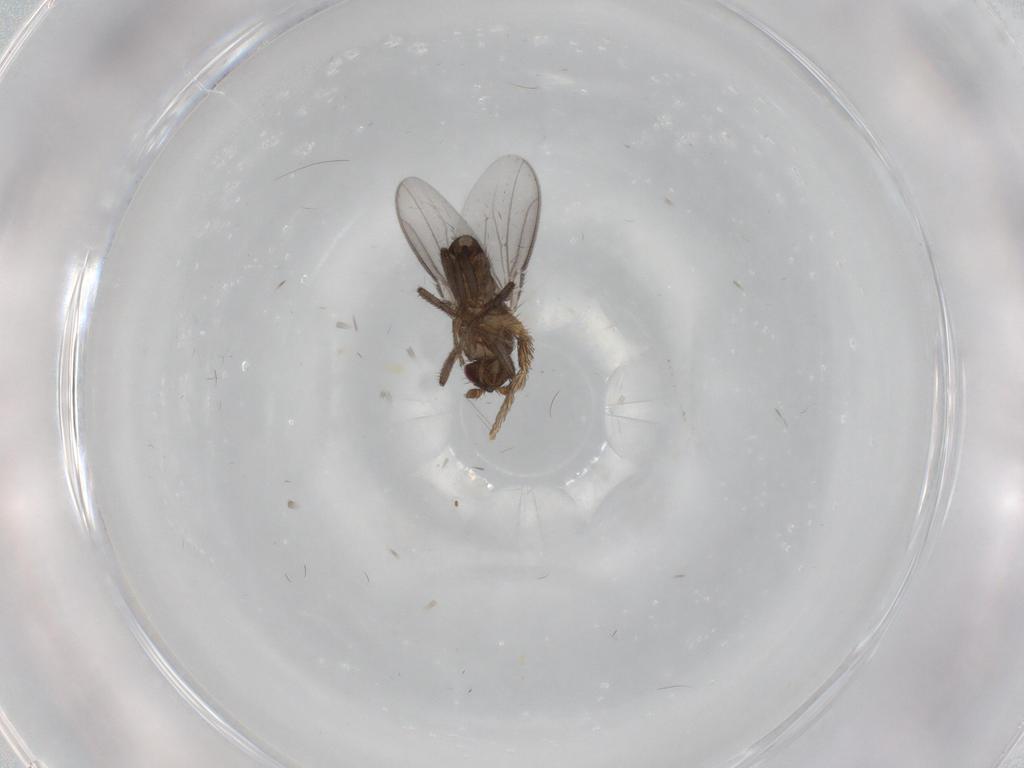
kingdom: Animalia
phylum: Arthropoda
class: Insecta
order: Diptera
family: Sphaeroceridae
